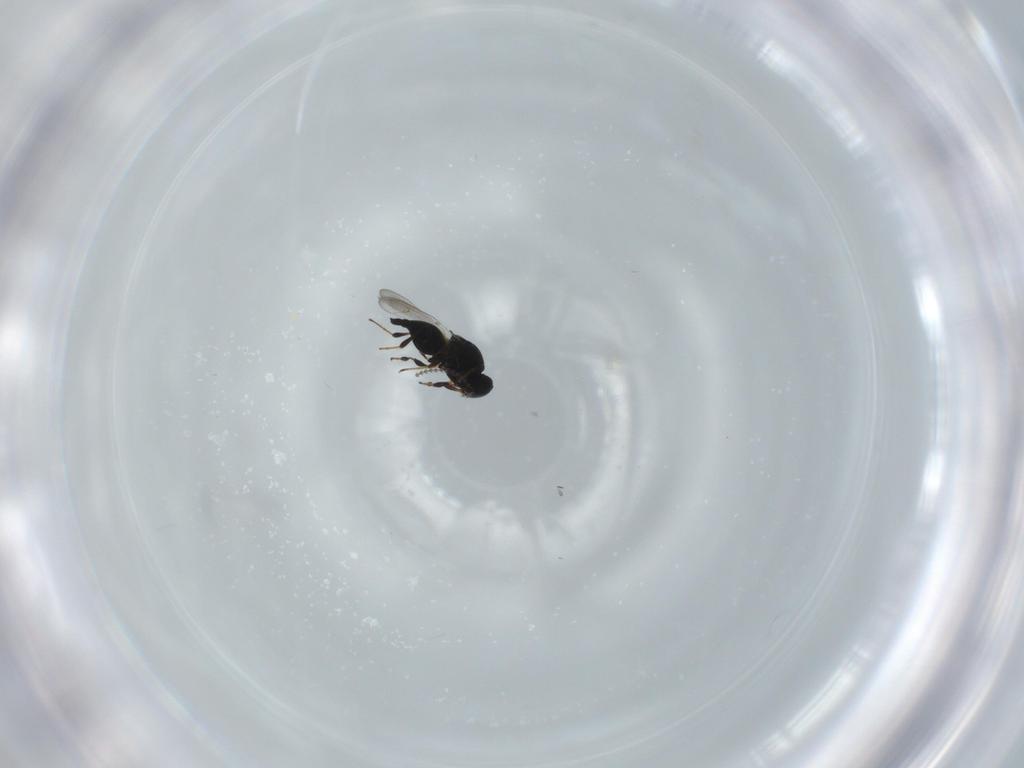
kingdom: Animalia
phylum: Arthropoda
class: Insecta
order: Hymenoptera
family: Platygastridae
